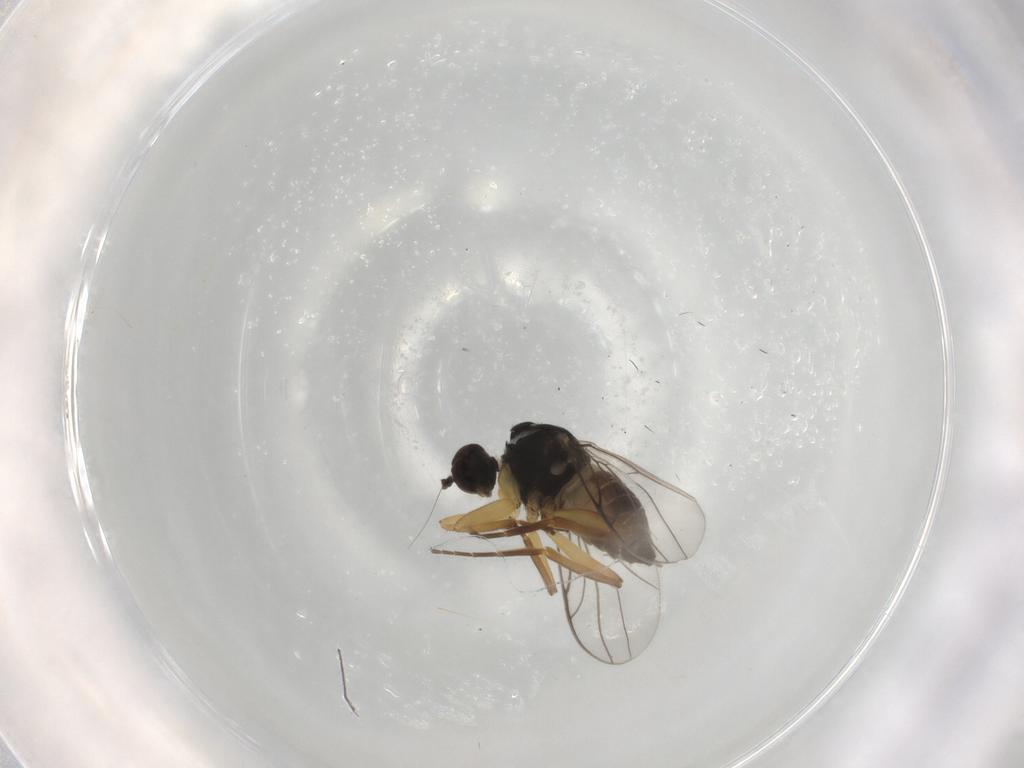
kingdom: Animalia
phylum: Arthropoda
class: Insecta
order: Diptera
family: Hybotidae
